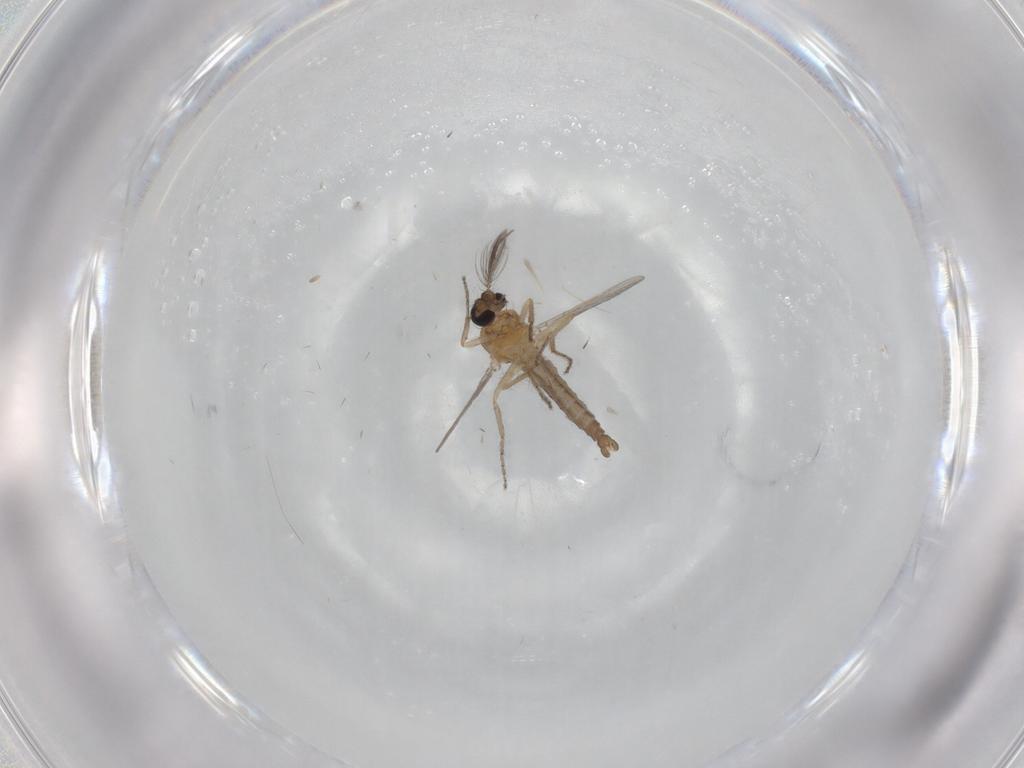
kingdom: Animalia
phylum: Arthropoda
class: Insecta
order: Diptera
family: Ceratopogonidae
